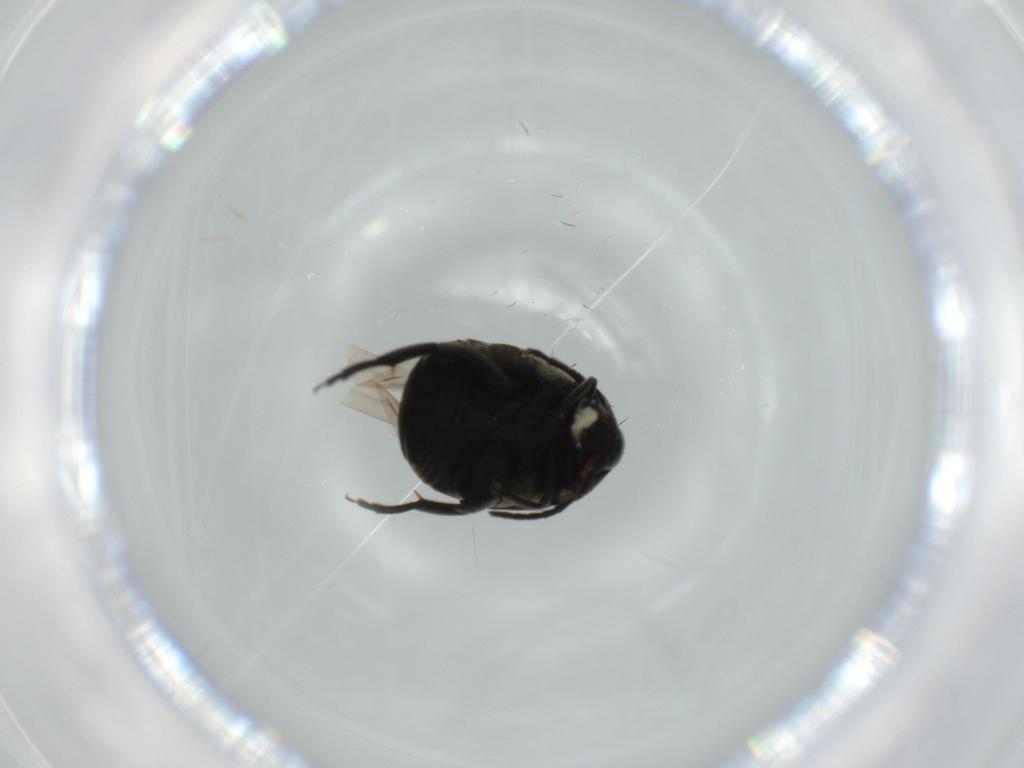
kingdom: Animalia
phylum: Arthropoda
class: Insecta
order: Coleoptera
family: Chrysomelidae
